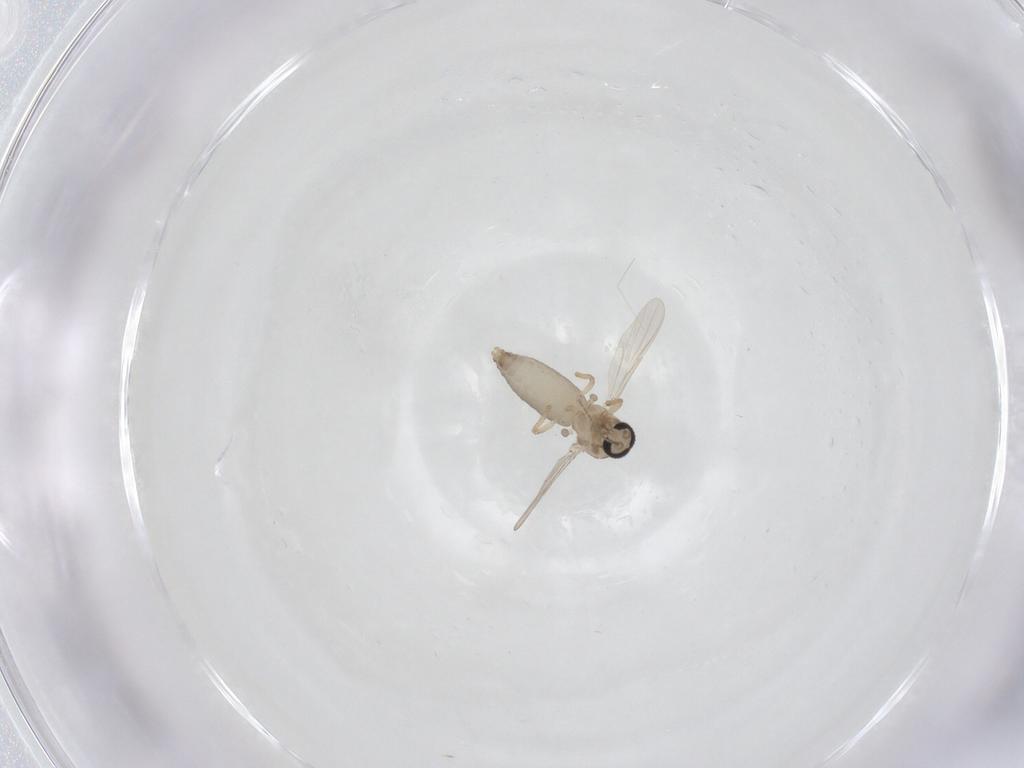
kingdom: Animalia
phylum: Arthropoda
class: Insecta
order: Diptera
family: Ceratopogonidae
